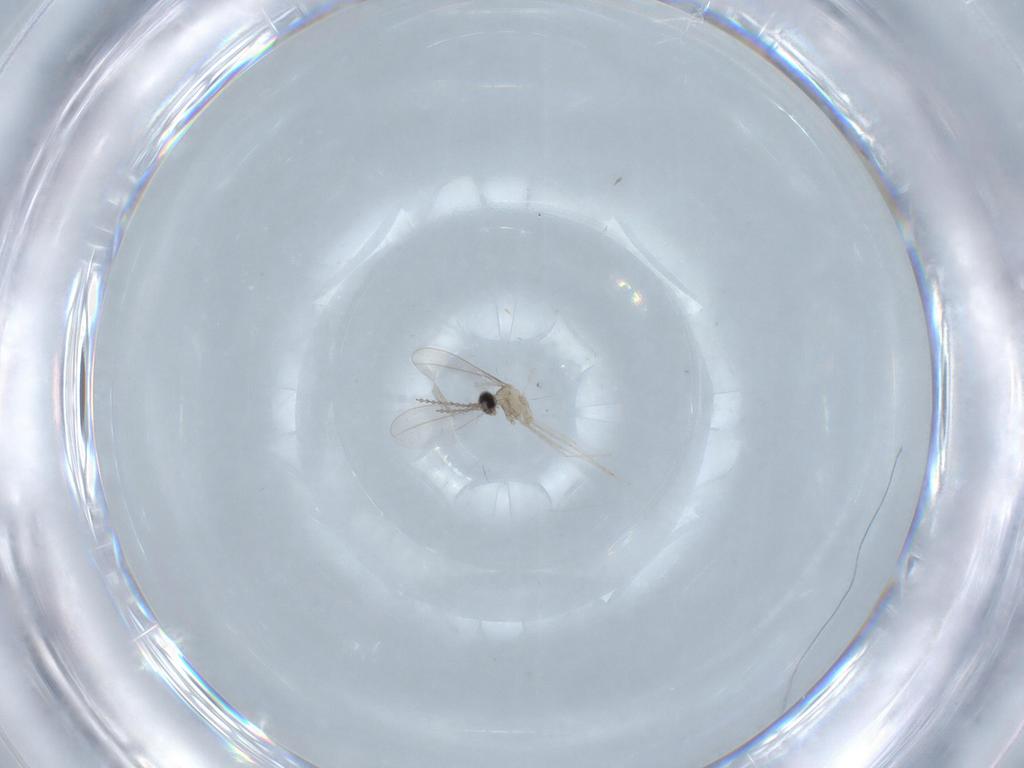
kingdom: Animalia
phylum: Arthropoda
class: Insecta
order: Diptera
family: Cecidomyiidae
